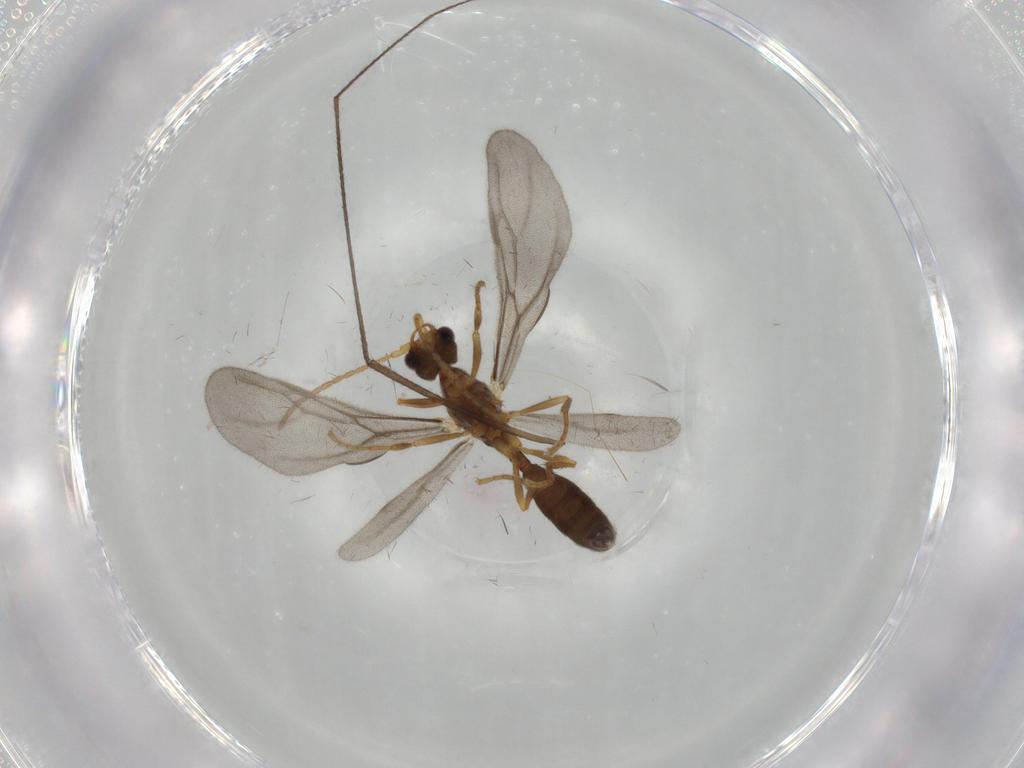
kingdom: Animalia
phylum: Arthropoda
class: Insecta
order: Hymenoptera
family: Formicidae
